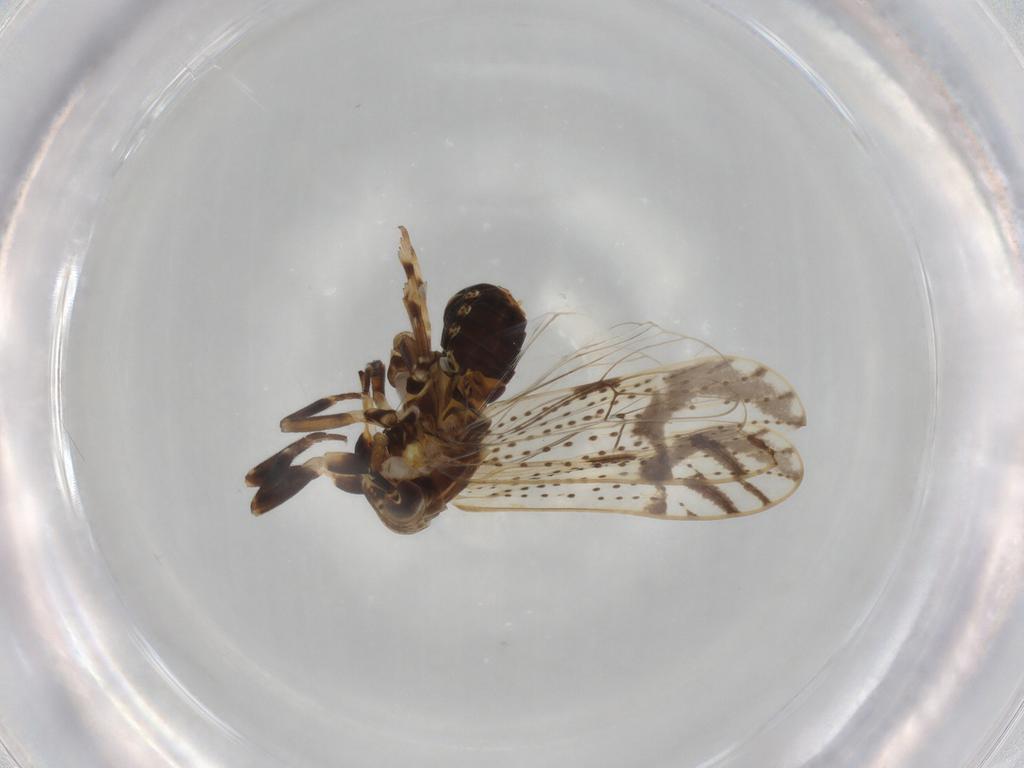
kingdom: Animalia
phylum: Arthropoda
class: Insecta
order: Hemiptera
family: Delphacidae
